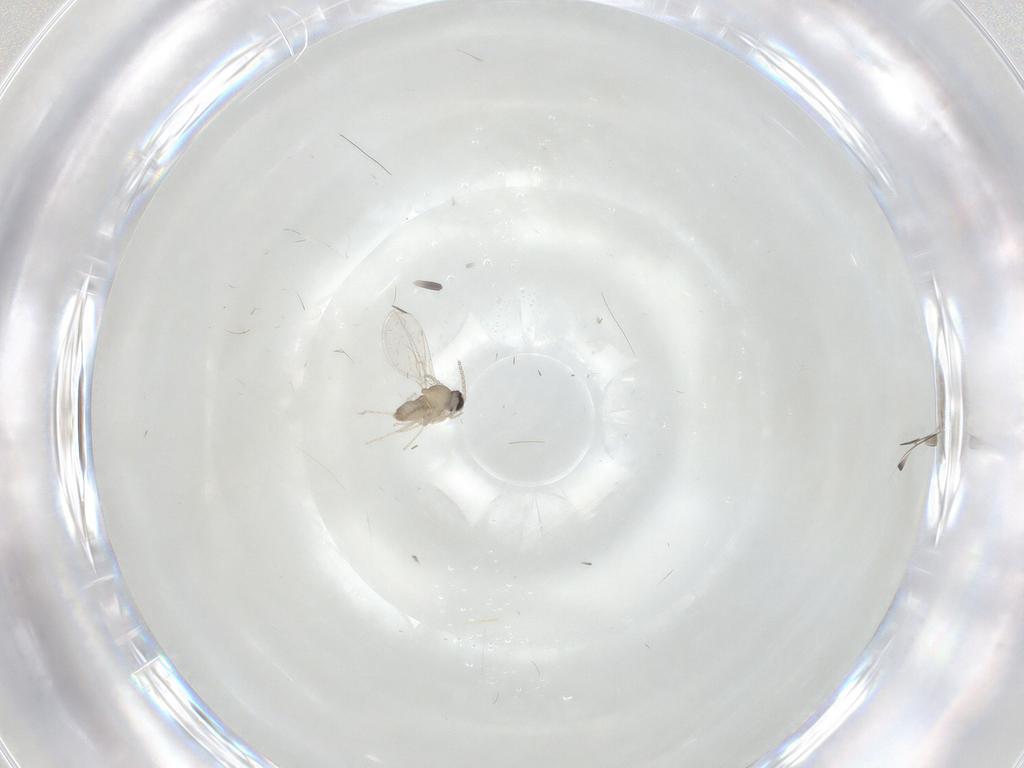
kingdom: Animalia
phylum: Arthropoda
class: Insecta
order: Diptera
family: Cecidomyiidae
